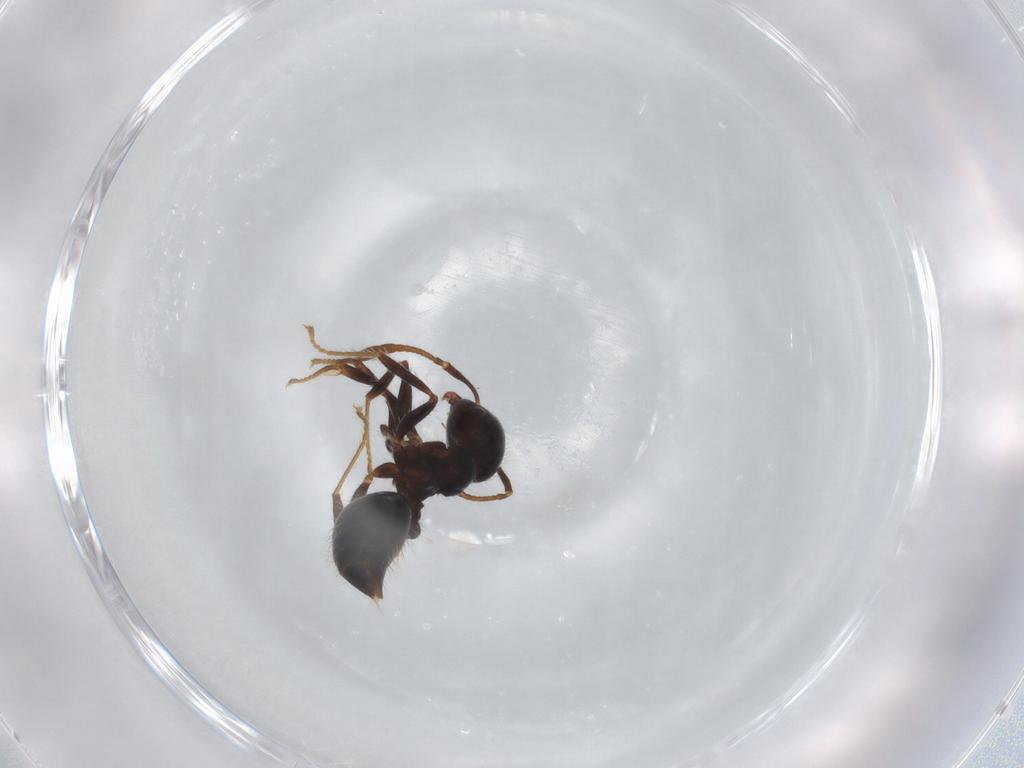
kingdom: Animalia
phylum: Arthropoda
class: Insecta
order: Hymenoptera
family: Formicidae
